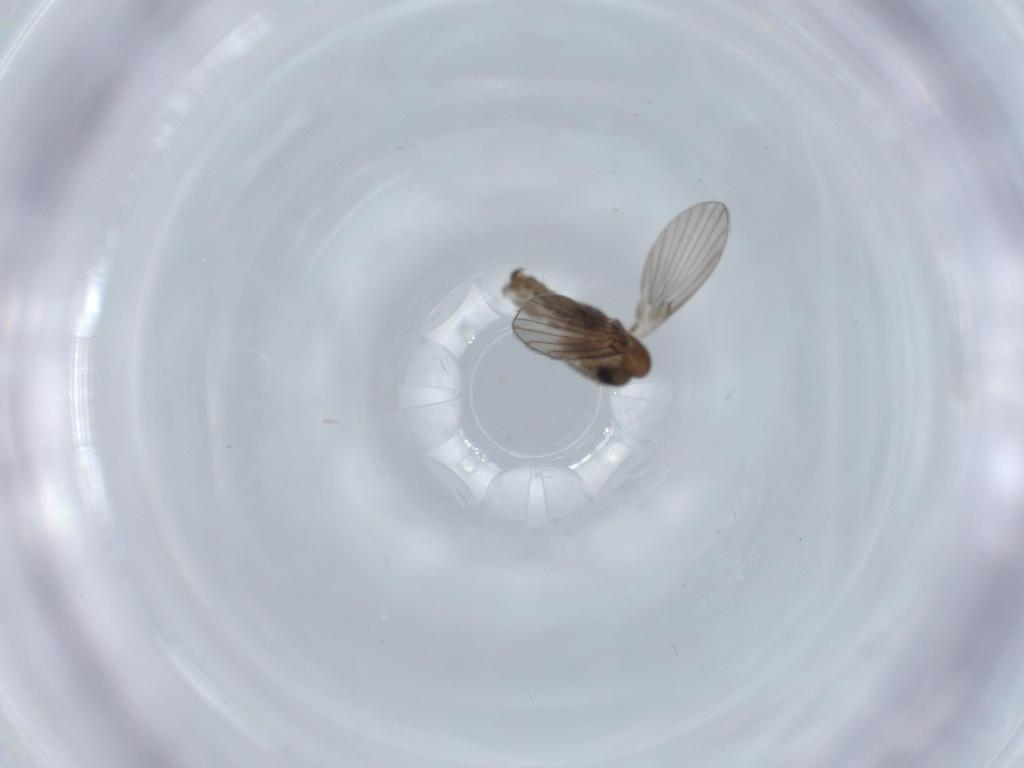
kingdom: Animalia
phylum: Arthropoda
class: Insecta
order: Diptera
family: Psychodidae
